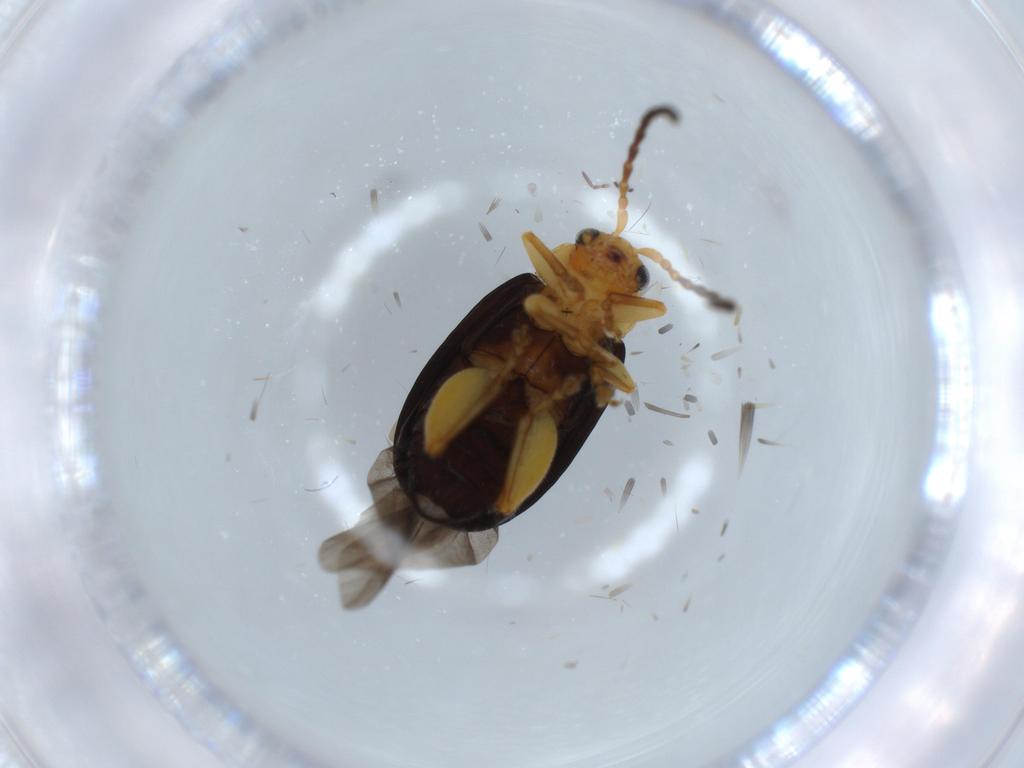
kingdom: Animalia
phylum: Arthropoda
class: Insecta
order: Coleoptera
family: Chrysomelidae
